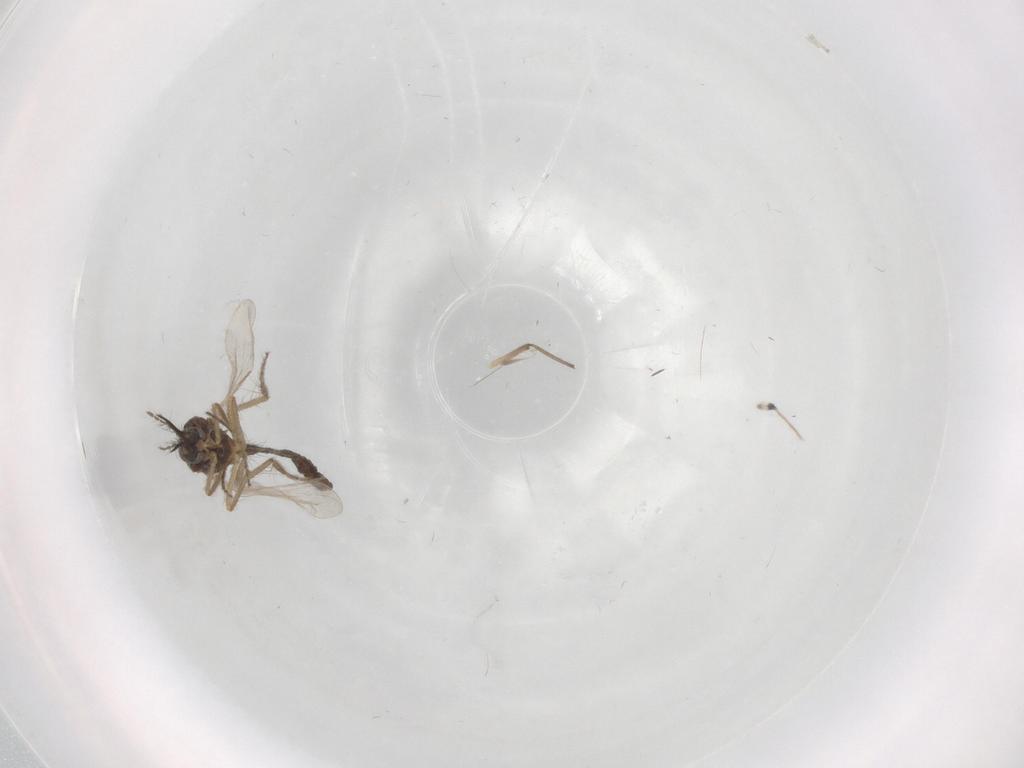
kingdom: Animalia
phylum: Arthropoda
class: Insecta
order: Diptera
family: Ceratopogonidae
